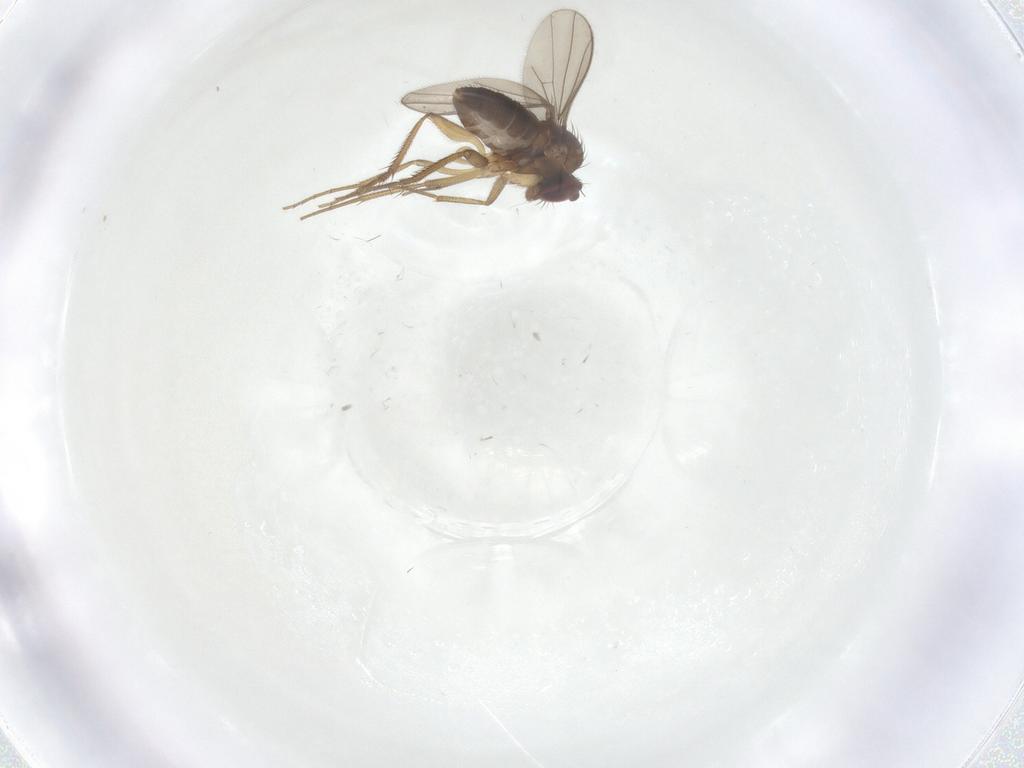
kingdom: Animalia
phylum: Arthropoda
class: Insecta
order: Diptera
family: Dolichopodidae
